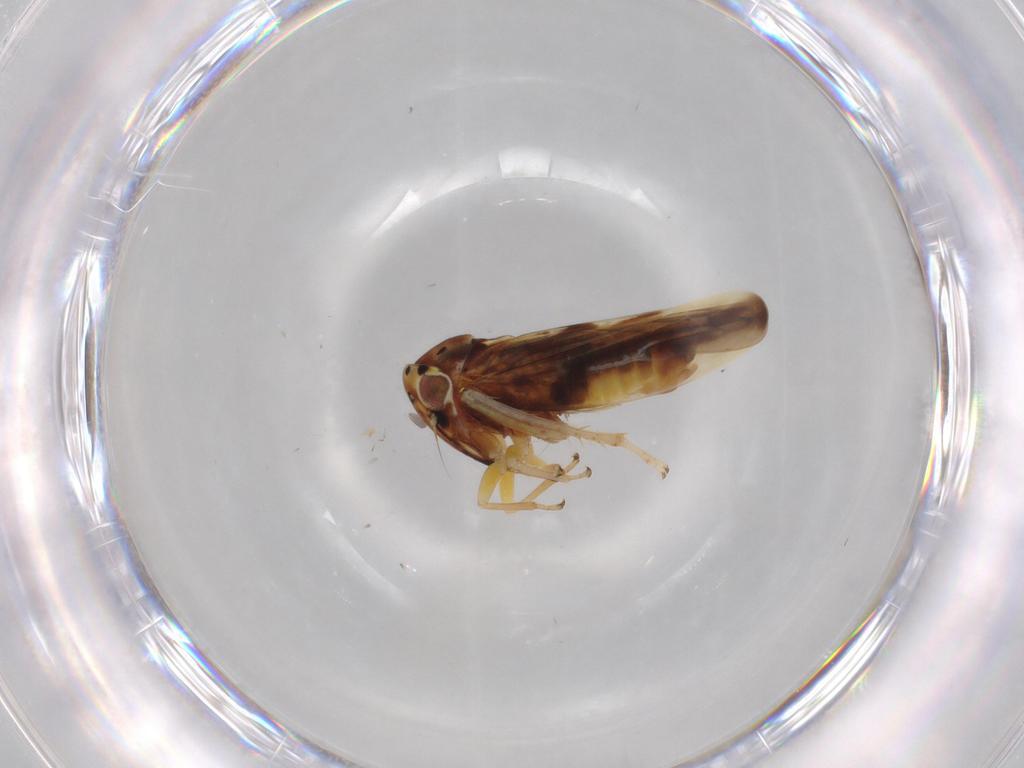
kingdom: Animalia
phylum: Arthropoda
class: Insecta
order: Hemiptera
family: Cicadellidae
